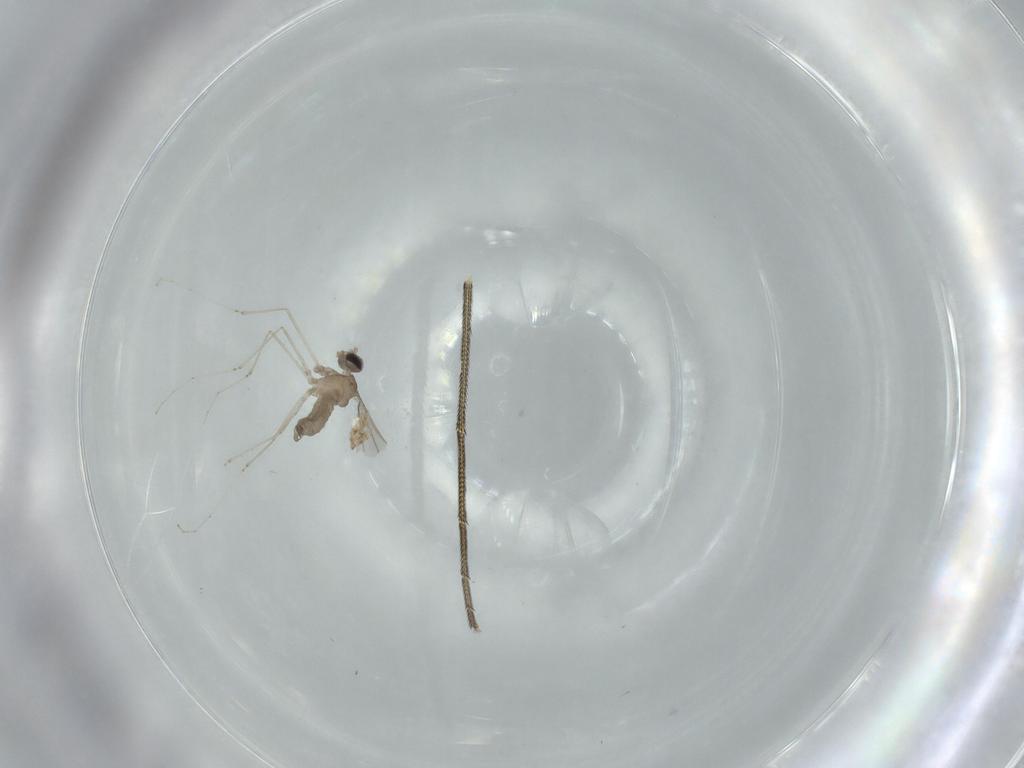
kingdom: Animalia
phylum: Arthropoda
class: Insecta
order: Diptera
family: Cecidomyiidae
